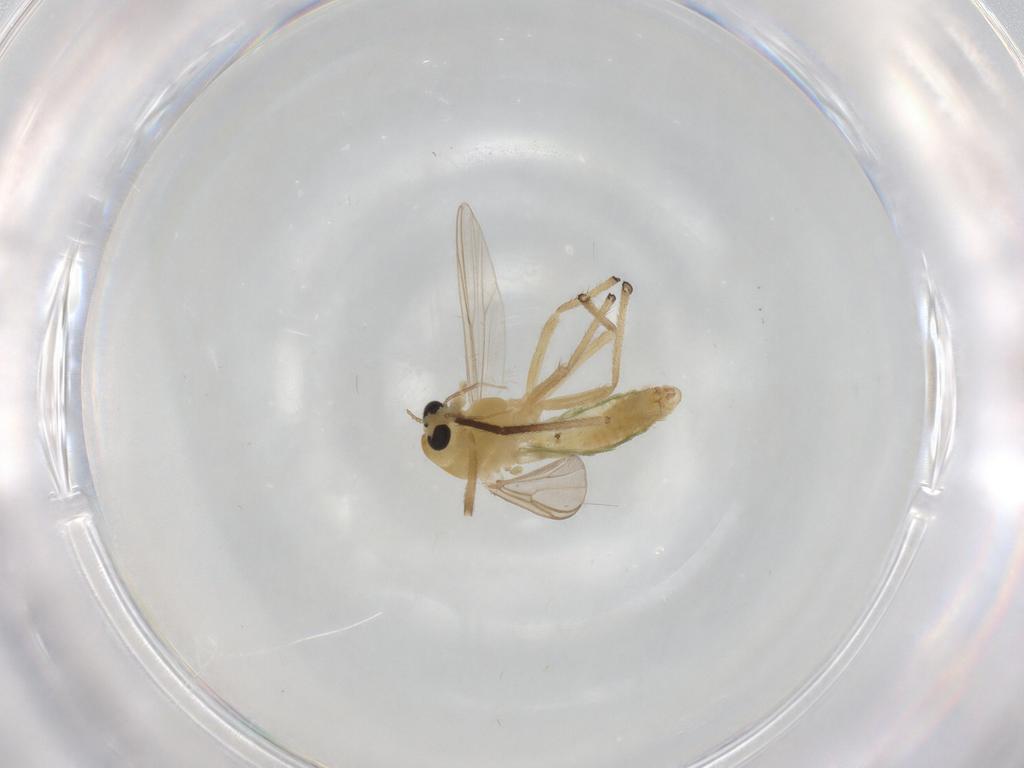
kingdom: Animalia
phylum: Arthropoda
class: Insecta
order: Diptera
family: Chironomidae
